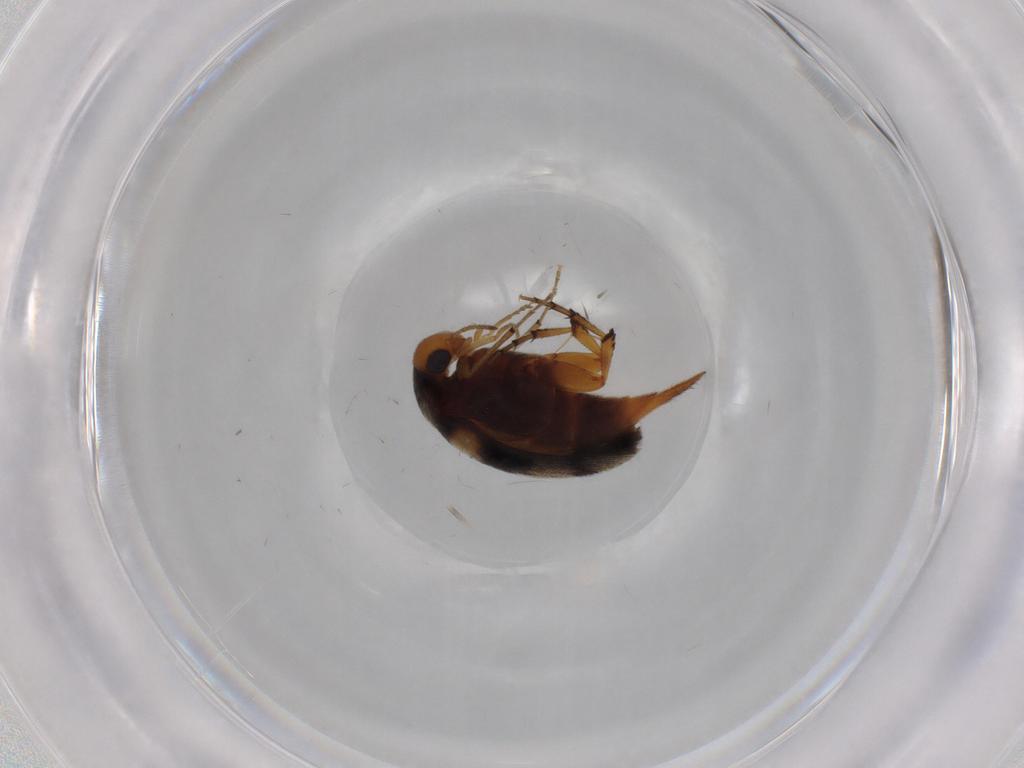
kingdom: Animalia
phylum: Arthropoda
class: Insecta
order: Coleoptera
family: Mordellidae
